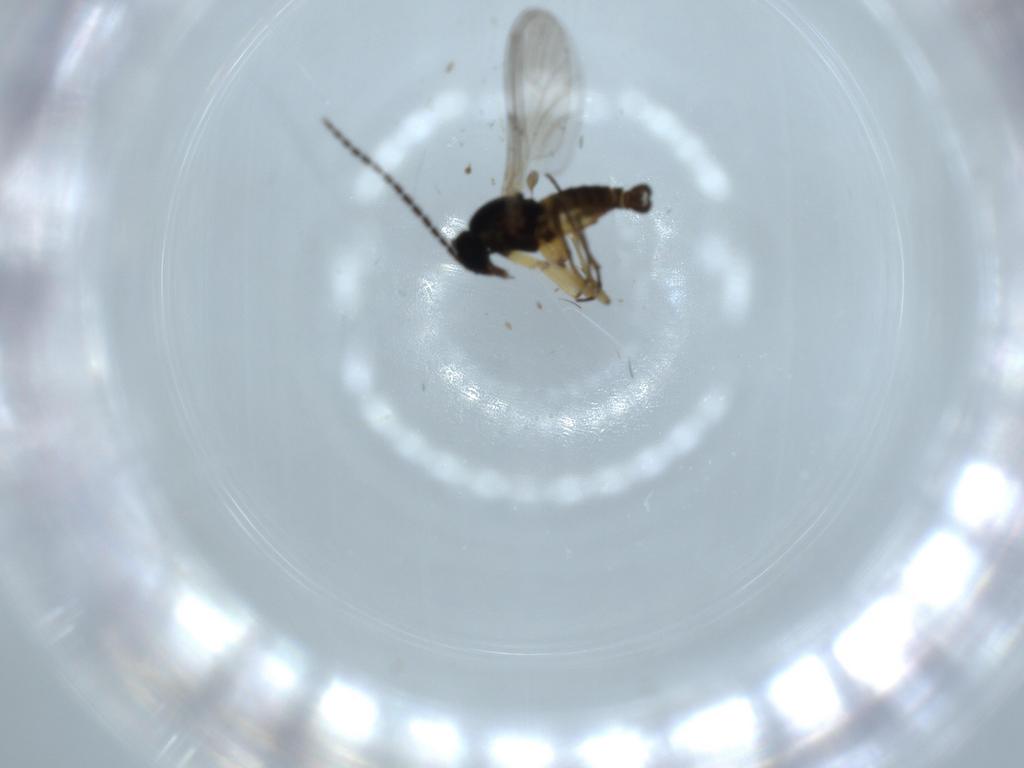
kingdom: Animalia
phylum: Arthropoda
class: Insecta
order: Diptera
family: Sciaridae
